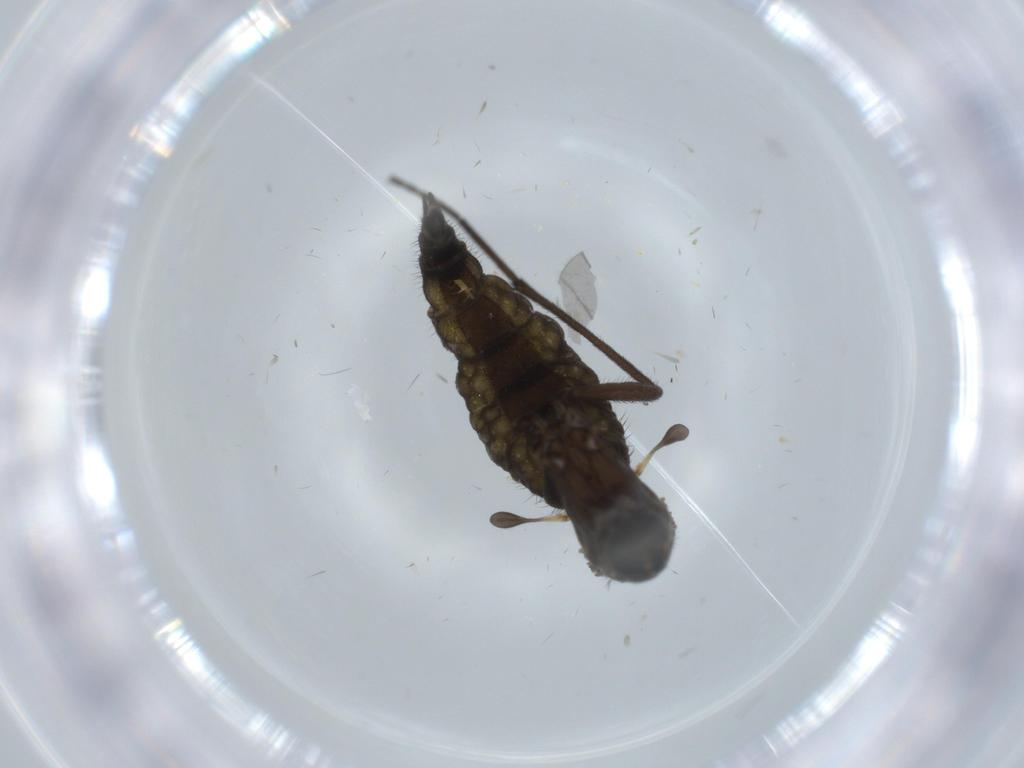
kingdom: Animalia
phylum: Arthropoda
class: Insecta
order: Diptera
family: Sciaridae
